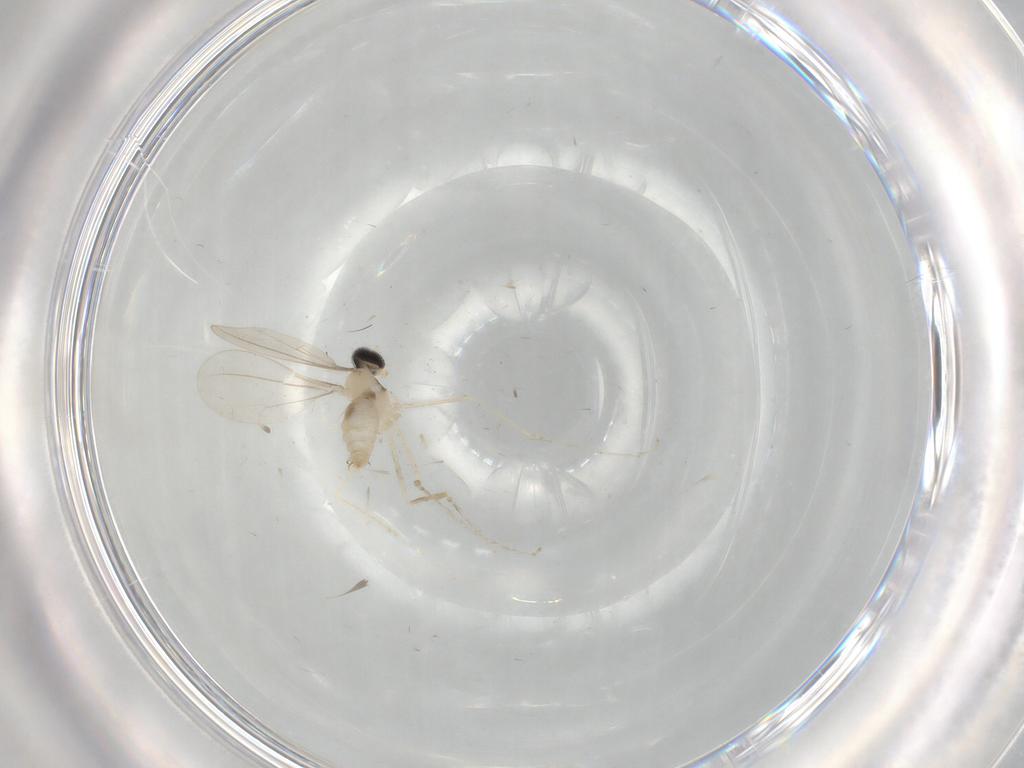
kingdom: Animalia
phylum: Arthropoda
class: Insecta
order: Diptera
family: Cecidomyiidae
